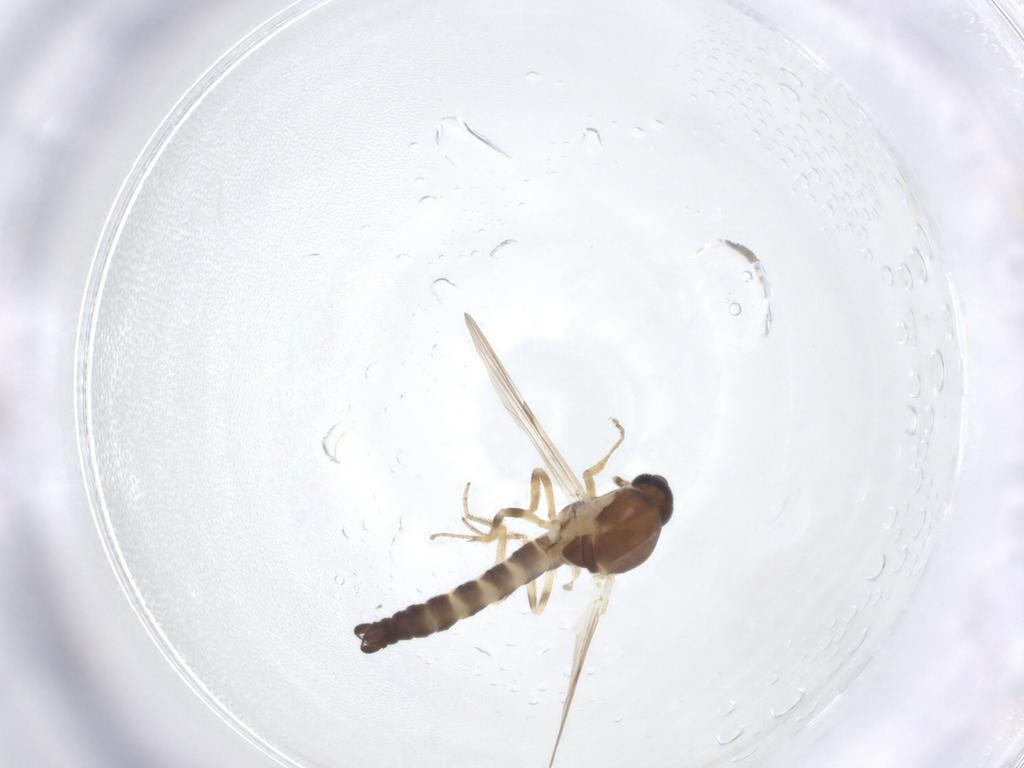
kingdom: Animalia
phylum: Arthropoda
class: Insecta
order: Diptera
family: Ceratopogonidae
